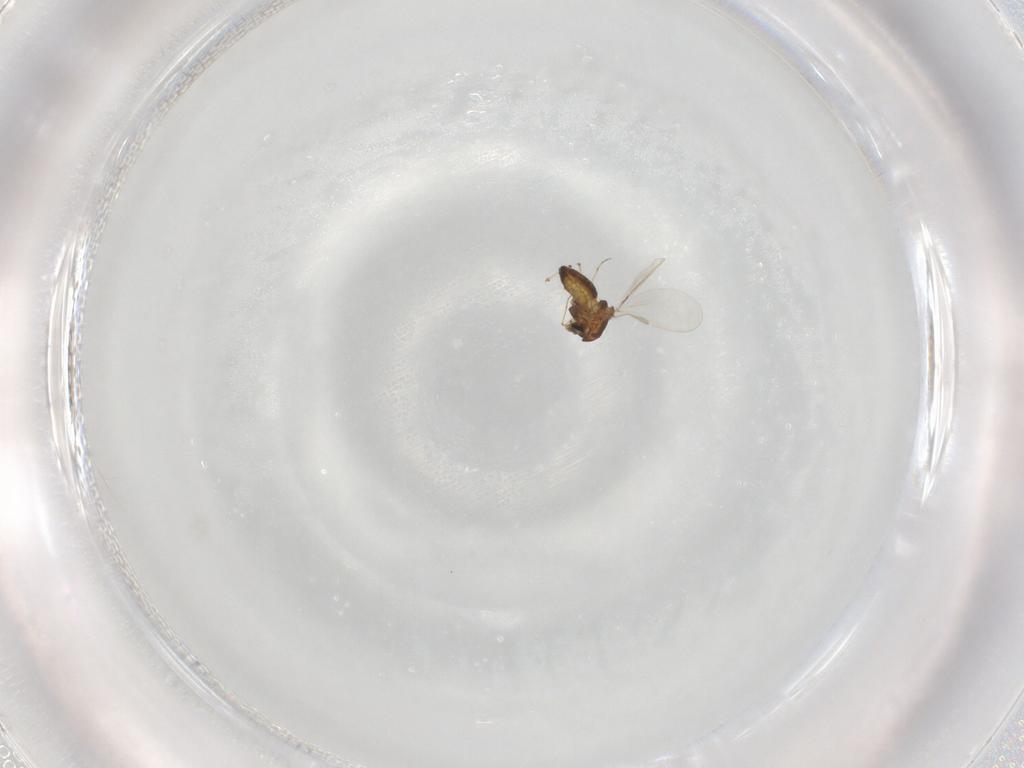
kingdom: Animalia
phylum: Arthropoda
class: Insecta
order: Diptera
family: Chironomidae
